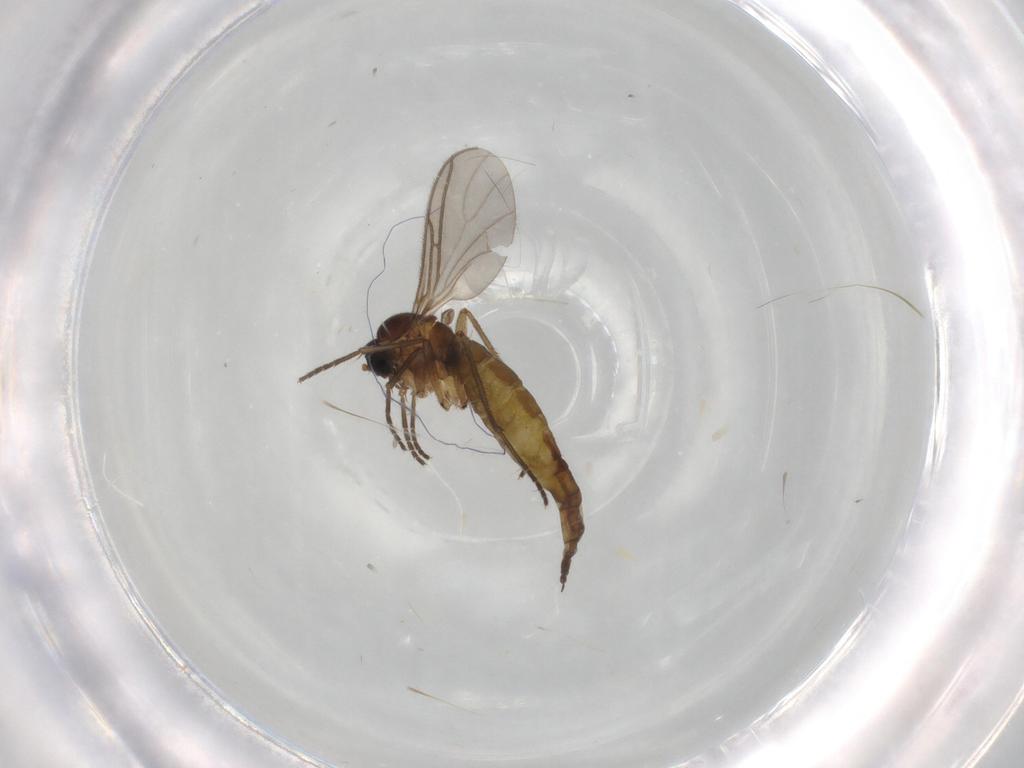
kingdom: Animalia
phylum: Arthropoda
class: Insecta
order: Diptera
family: Sciaridae
